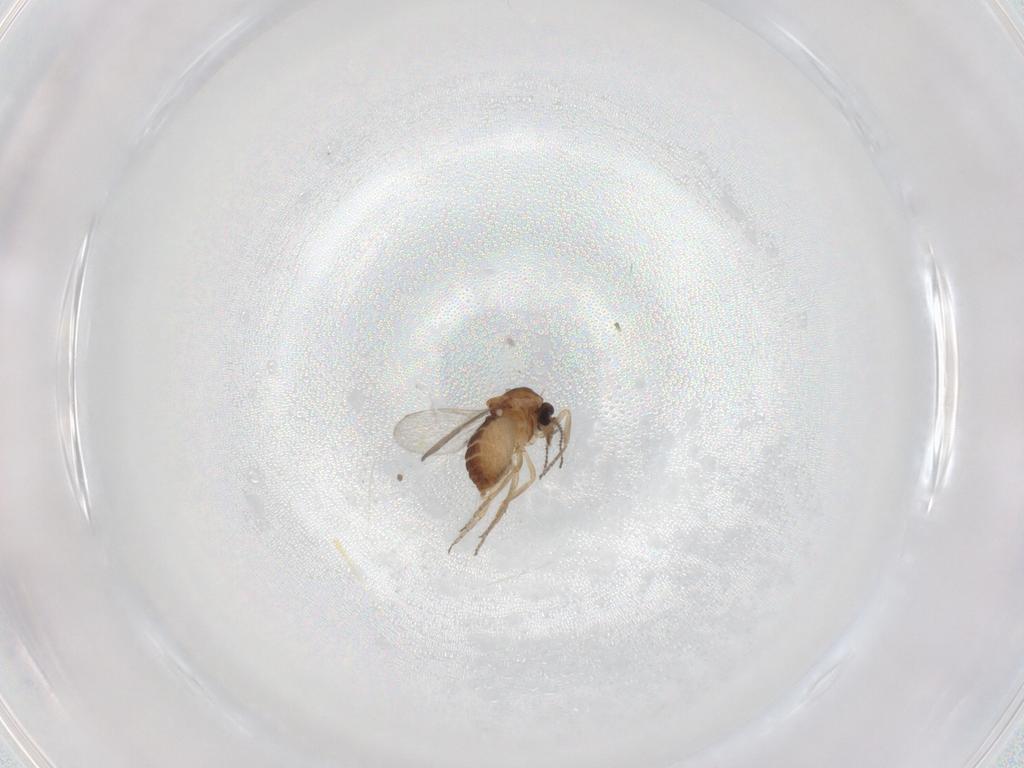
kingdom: Animalia
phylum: Arthropoda
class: Insecta
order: Diptera
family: Ceratopogonidae
